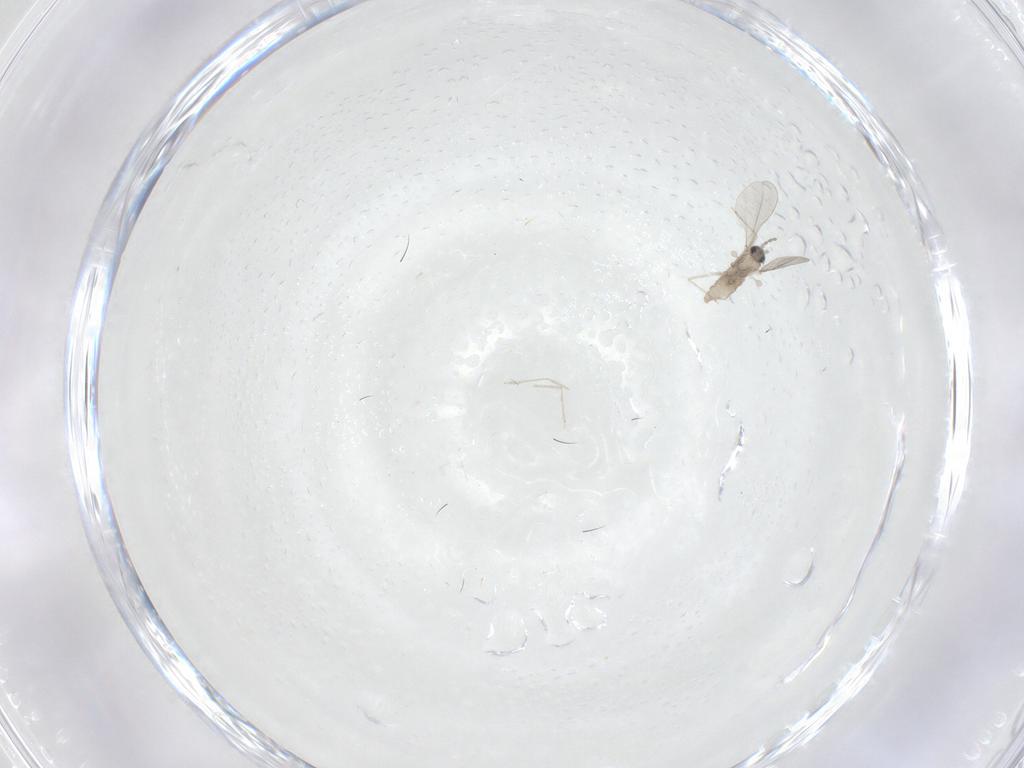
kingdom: Animalia
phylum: Arthropoda
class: Insecta
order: Diptera
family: Cecidomyiidae
